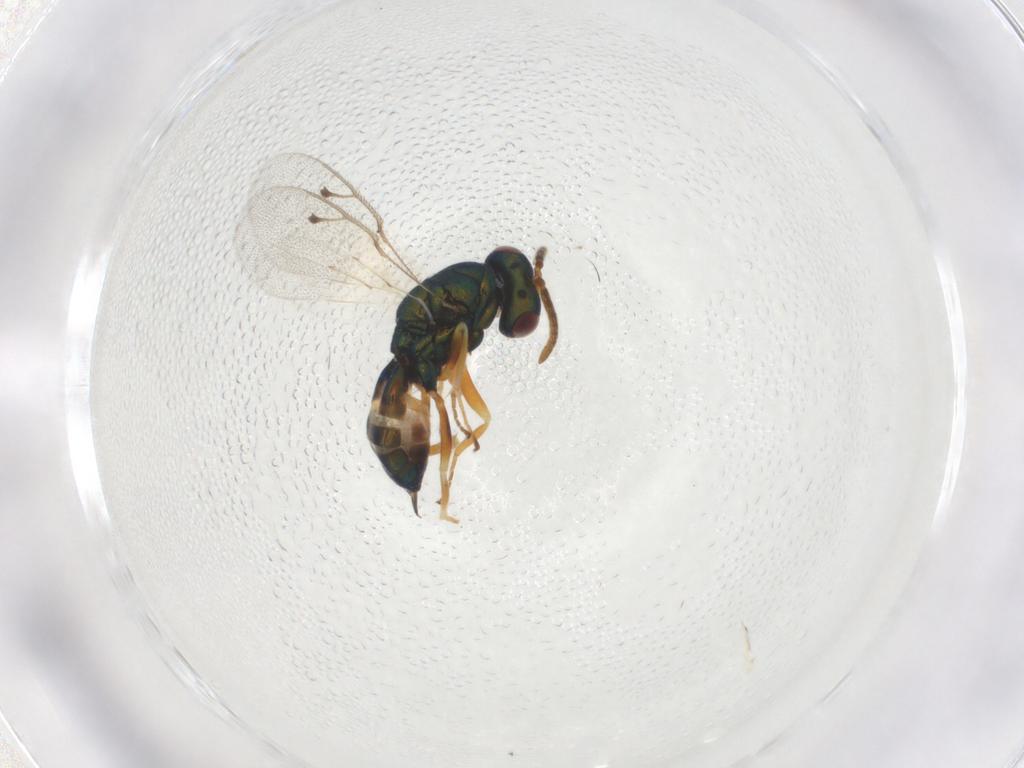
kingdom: Animalia
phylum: Arthropoda
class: Insecta
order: Hymenoptera
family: Pteromalidae
